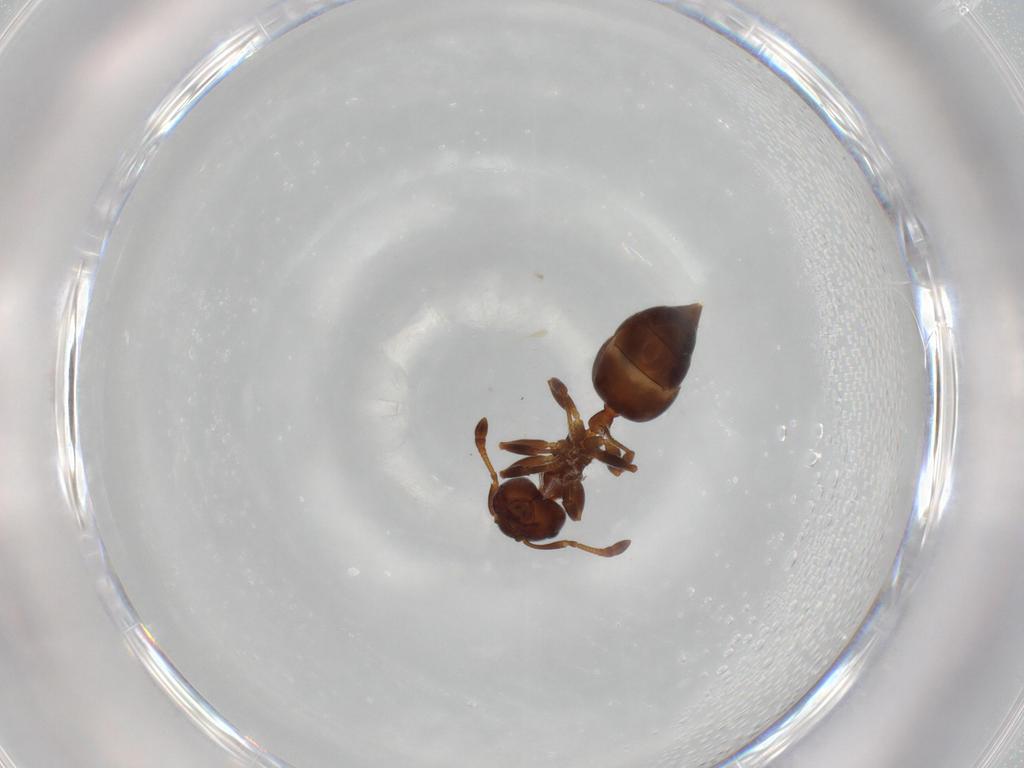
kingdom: Animalia
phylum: Arthropoda
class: Insecta
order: Hymenoptera
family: Formicidae
